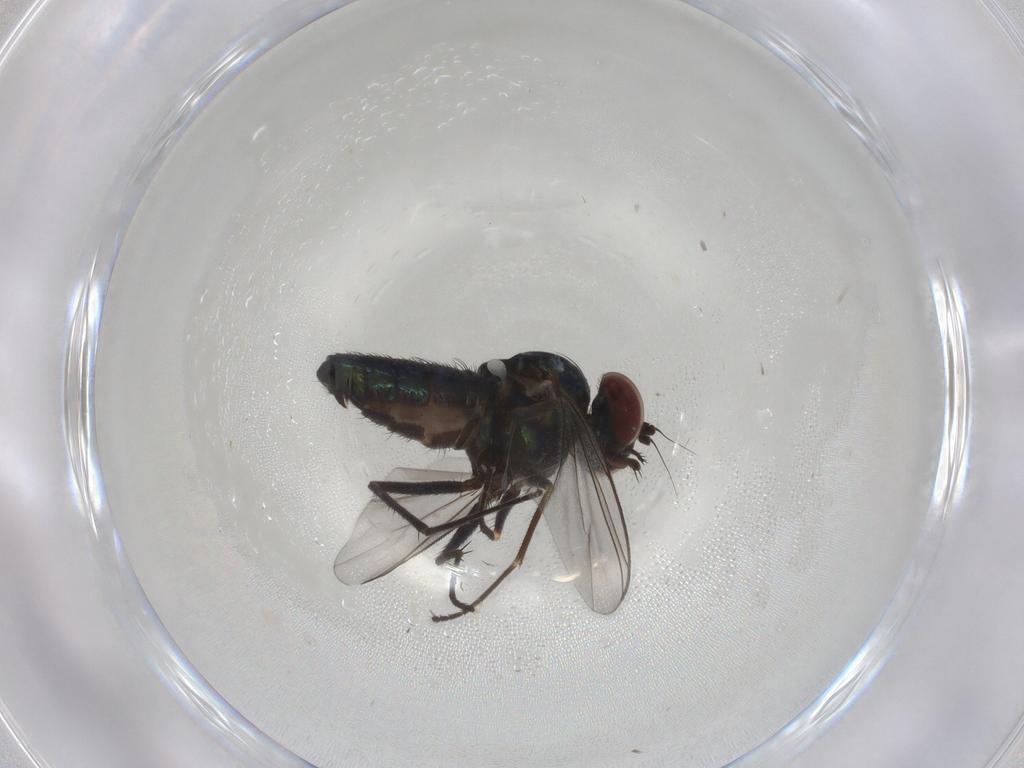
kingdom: Animalia
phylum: Arthropoda
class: Insecta
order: Diptera
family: Dolichopodidae
